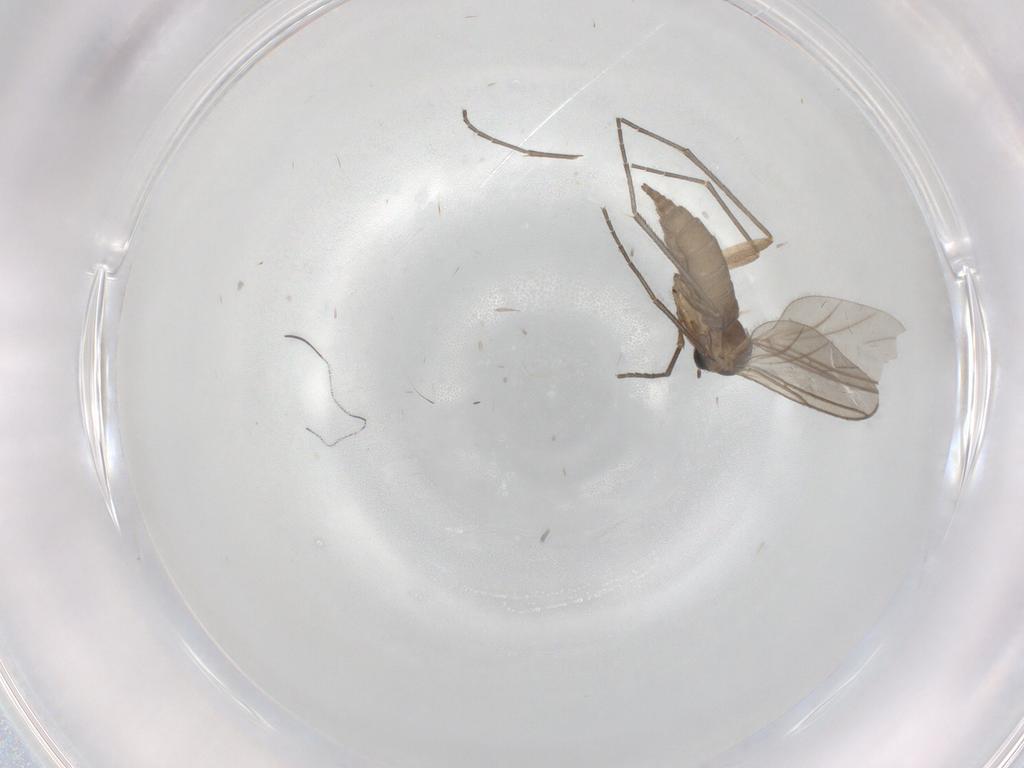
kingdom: Animalia
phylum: Arthropoda
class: Insecta
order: Diptera
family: Sciaridae
